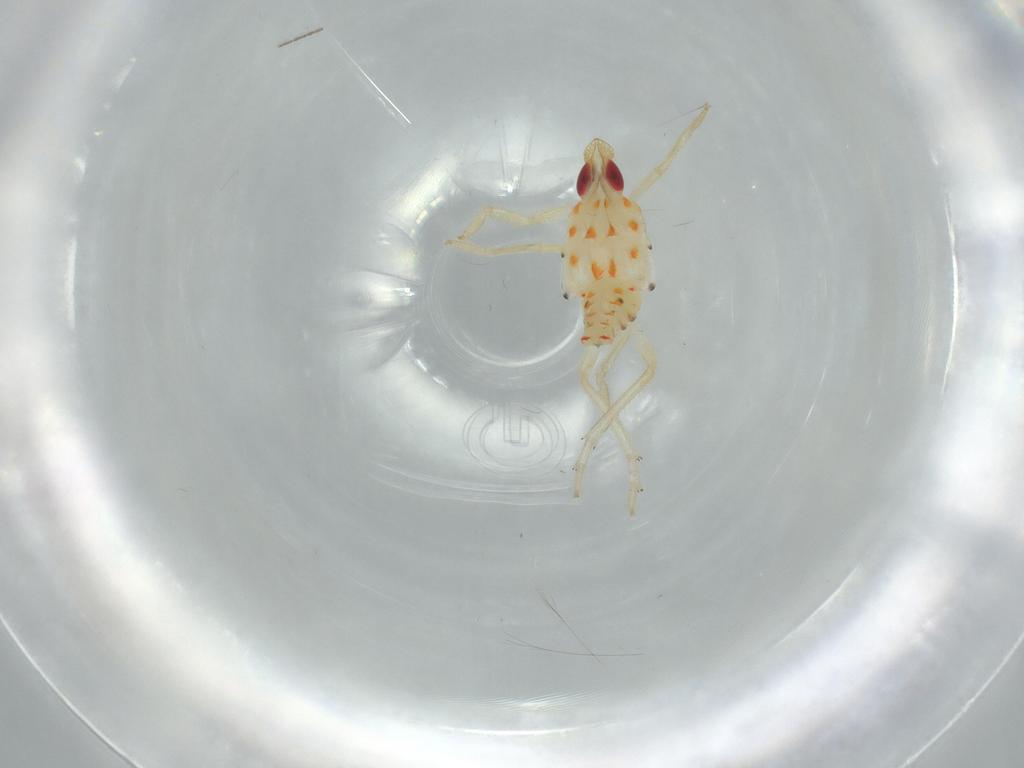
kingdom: Animalia
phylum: Arthropoda
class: Insecta
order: Hemiptera
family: Tropiduchidae
